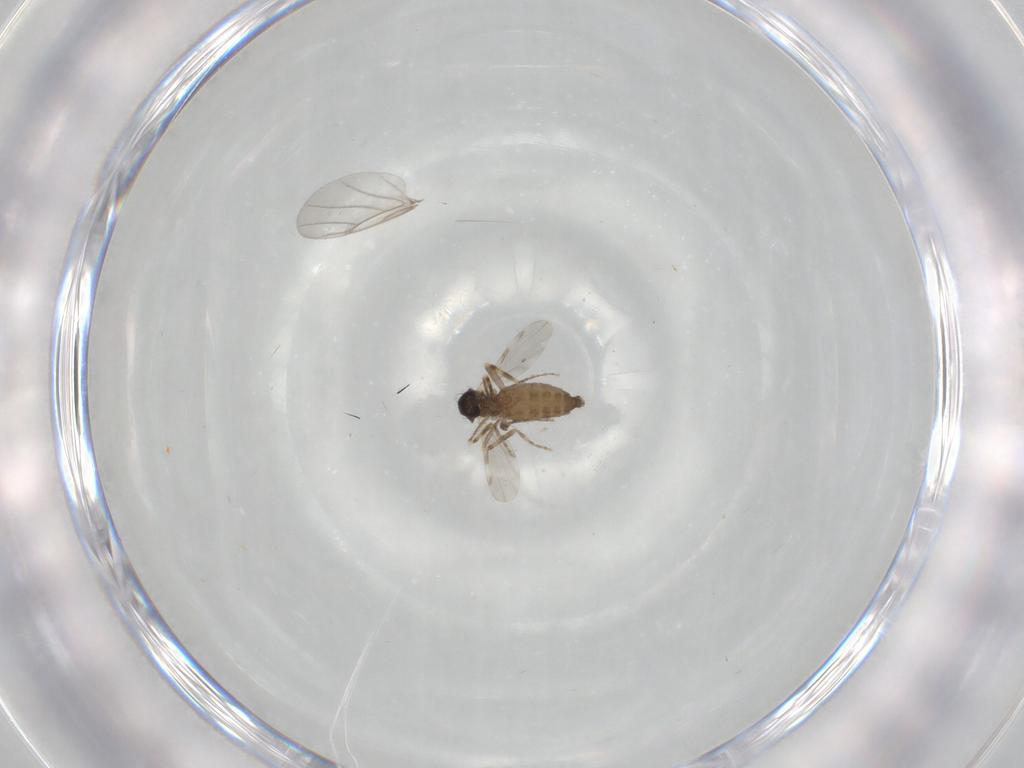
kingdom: Animalia
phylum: Arthropoda
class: Insecta
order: Diptera
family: Ceratopogonidae
